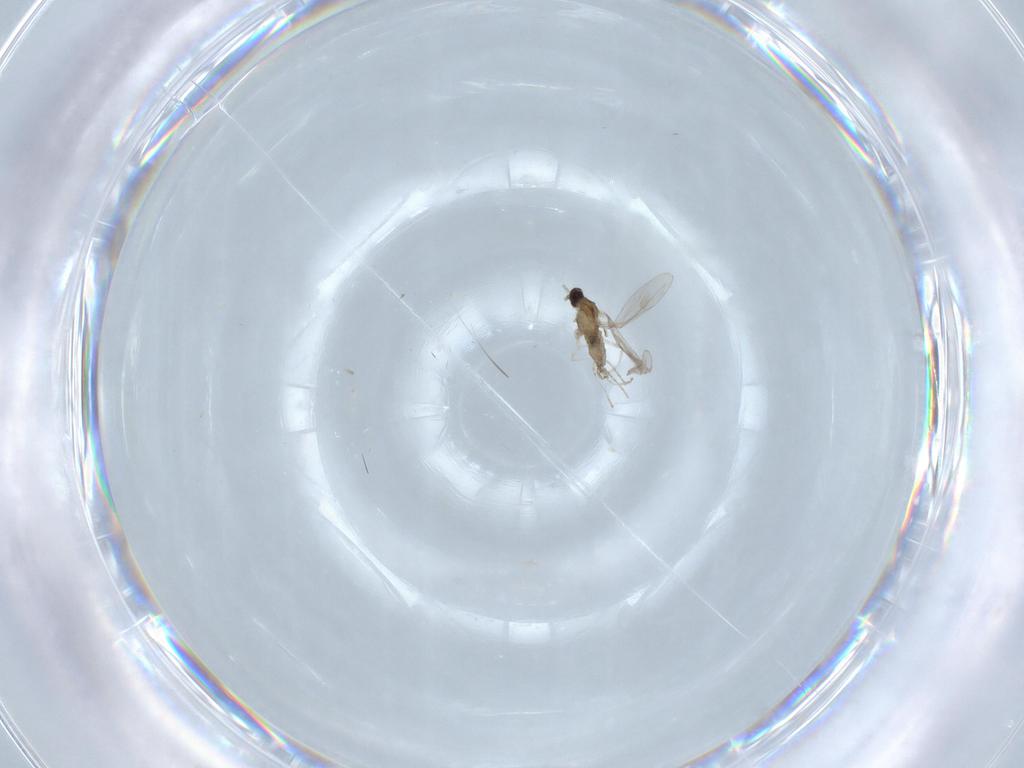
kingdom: Animalia
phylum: Arthropoda
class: Insecta
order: Diptera
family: Cecidomyiidae
